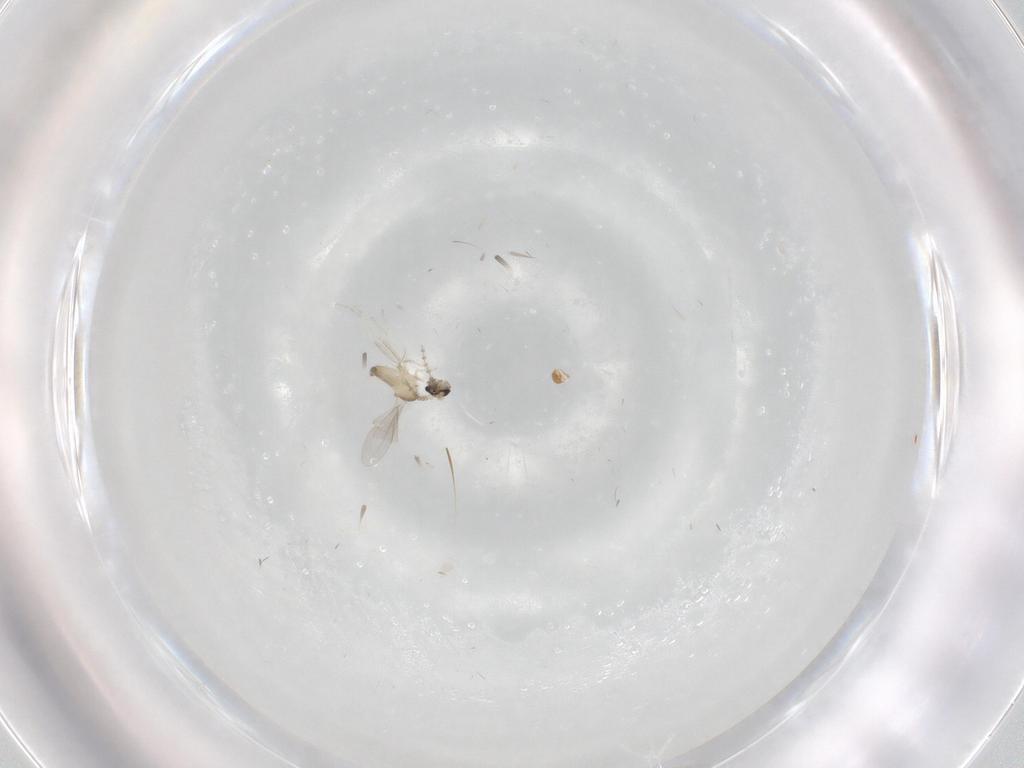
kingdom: Animalia
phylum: Arthropoda
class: Insecta
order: Diptera
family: Cecidomyiidae
